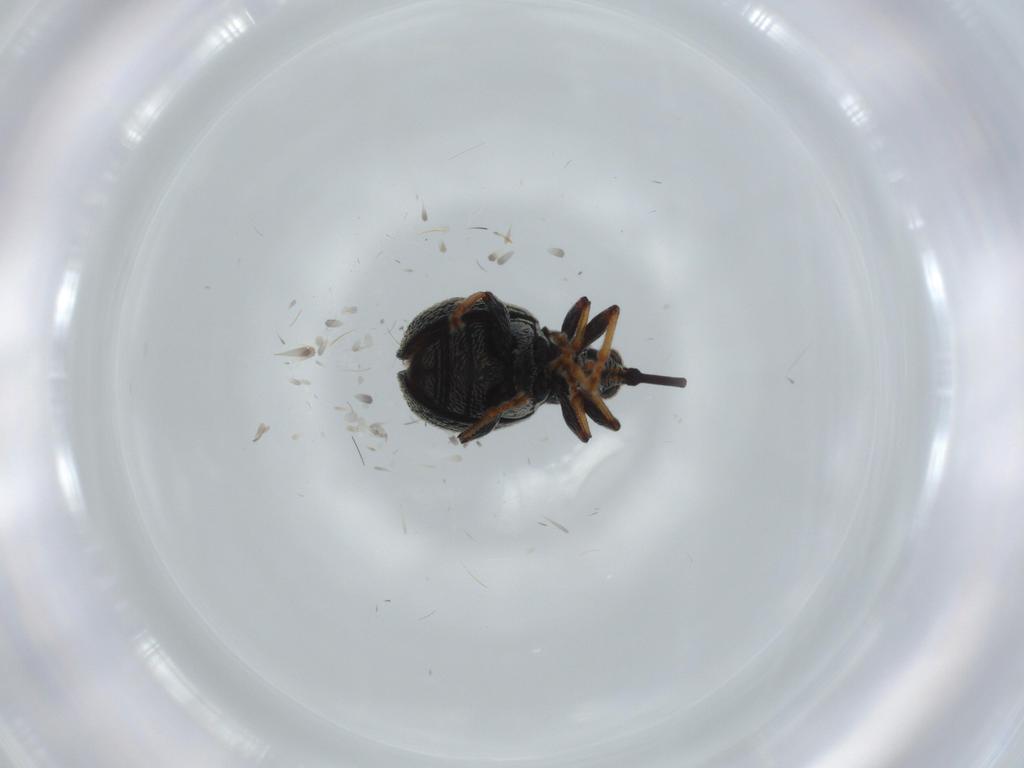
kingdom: Animalia
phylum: Arthropoda
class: Insecta
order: Coleoptera
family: Brentidae
